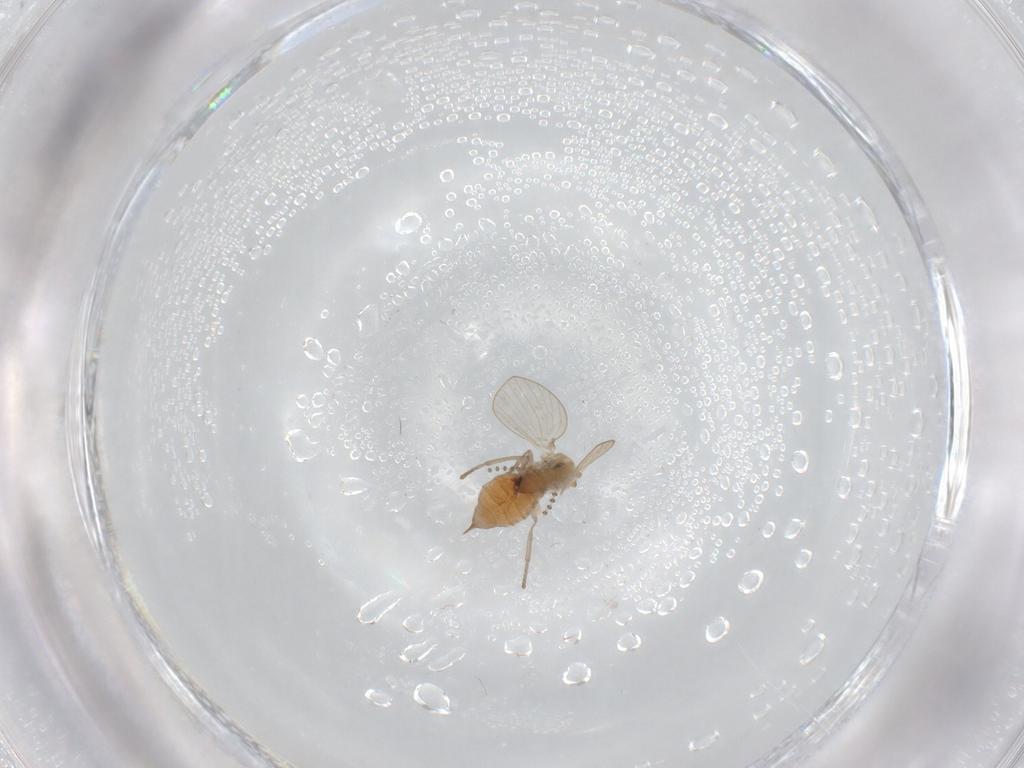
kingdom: Animalia
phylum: Arthropoda
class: Insecta
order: Diptera
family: Psychodidae
